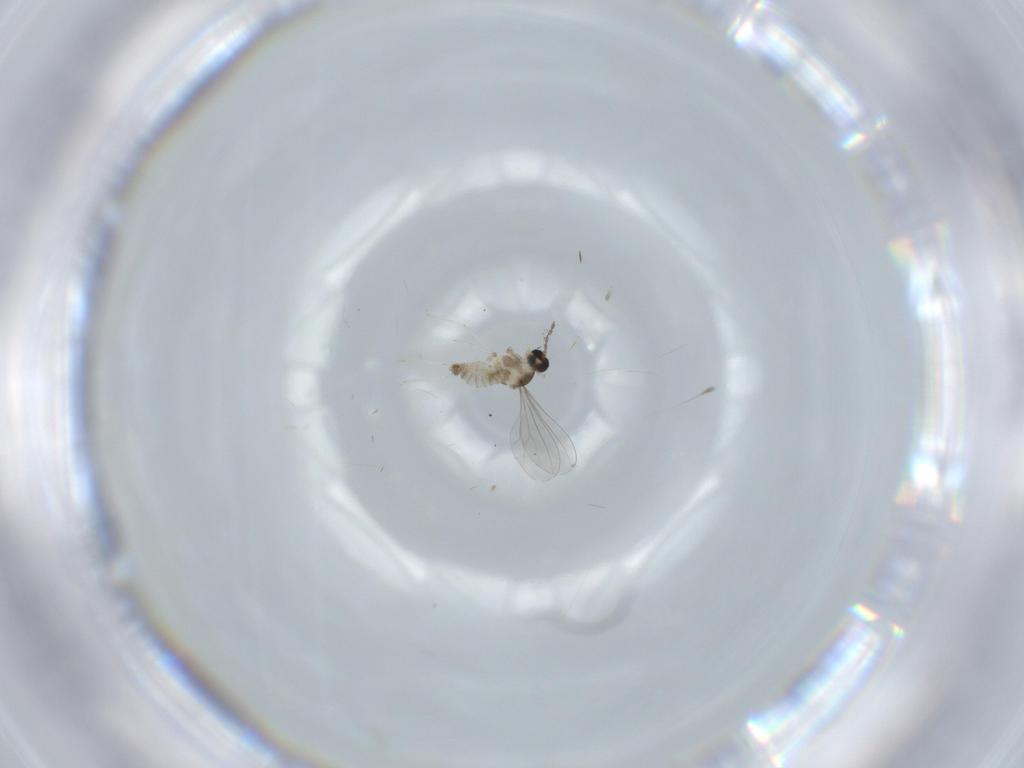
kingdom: Animalia
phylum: Arthropoda
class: Insecta
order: Diptera
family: Cecidomyiidae
